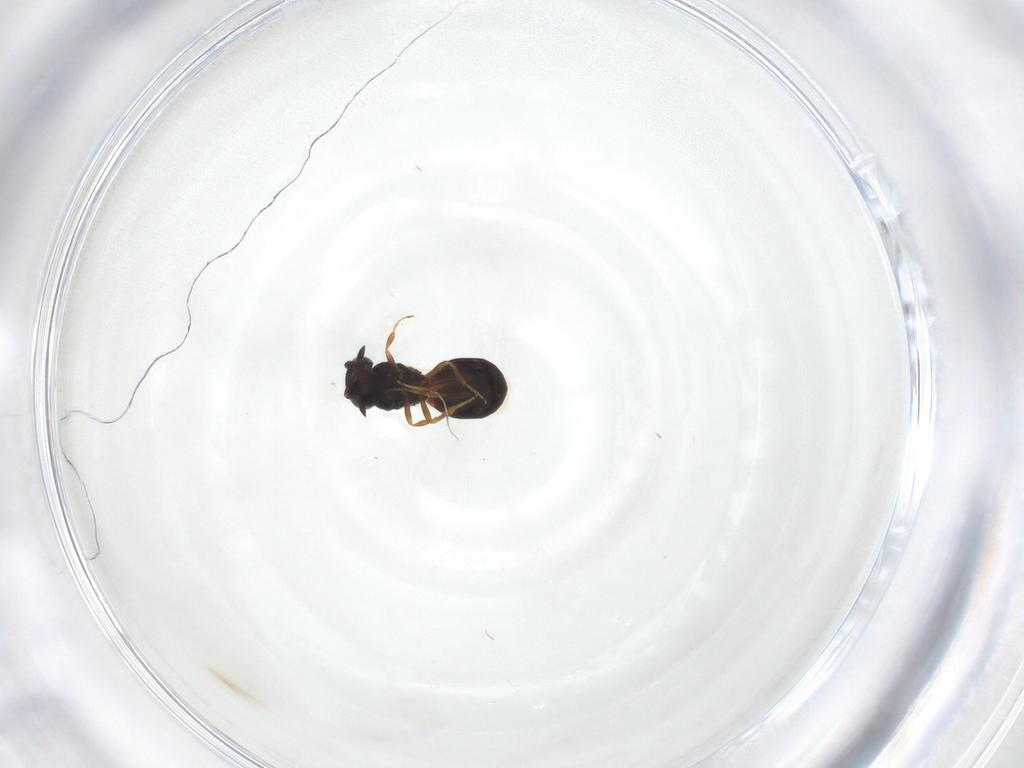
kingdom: Animalia
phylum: Arthropoda
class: Insecta
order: Hymenoptera
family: Scelionidae
